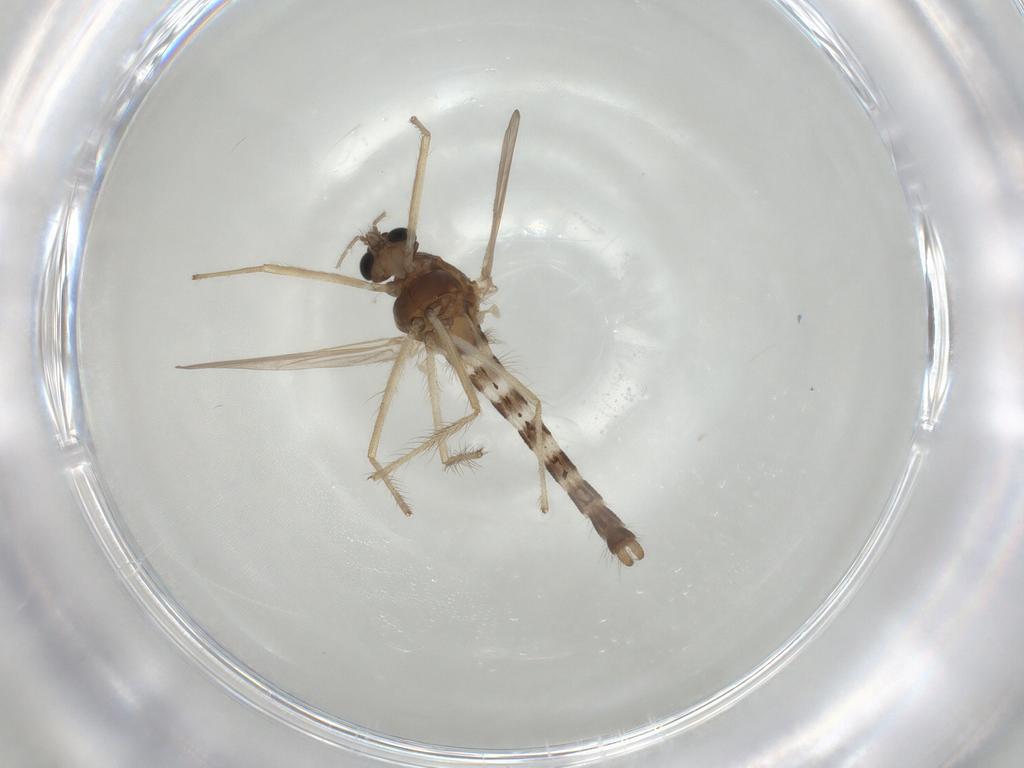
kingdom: Animalia
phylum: Arthropoda
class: Insecta
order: Diptera
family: Chironomidae
